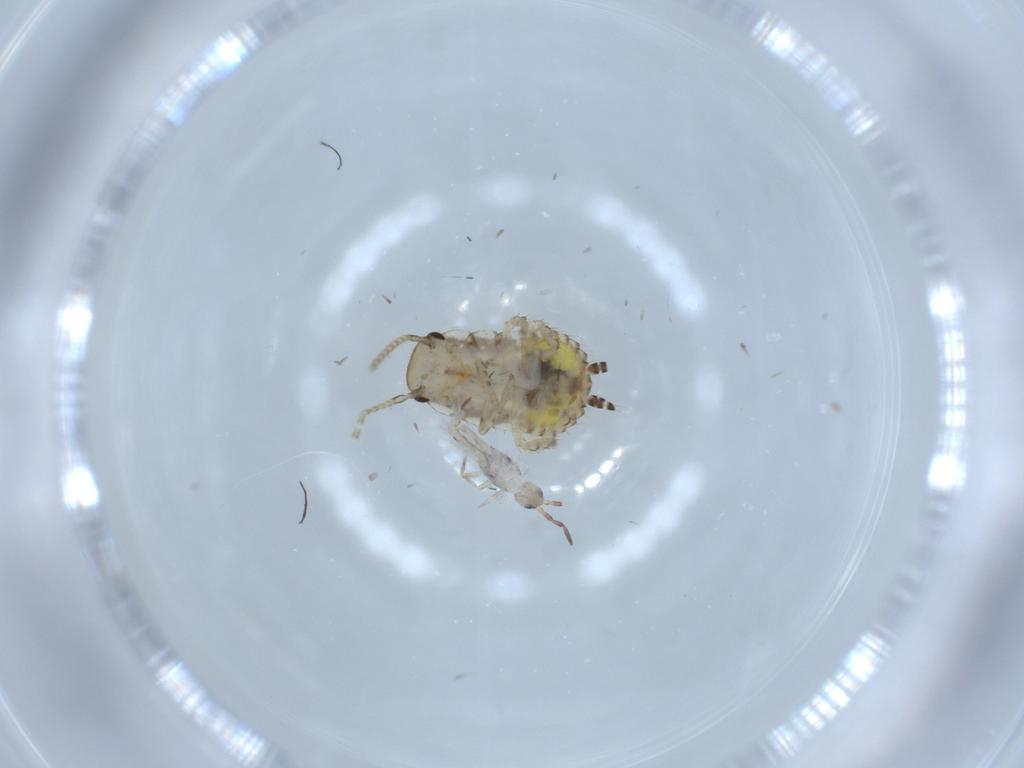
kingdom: Animalia
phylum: Arthropoda
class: Insecta
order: Blattodea
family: Ectobiidae
